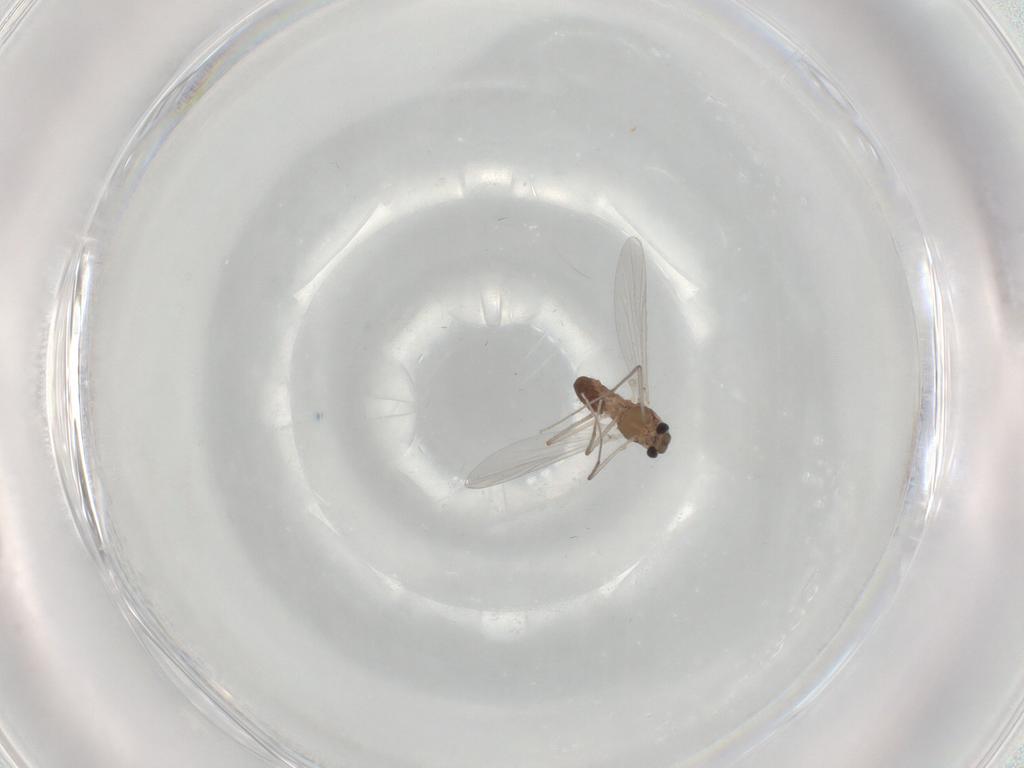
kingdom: Animalia
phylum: Arthropoda
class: Insecta
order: Diptera
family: Chironomidae
